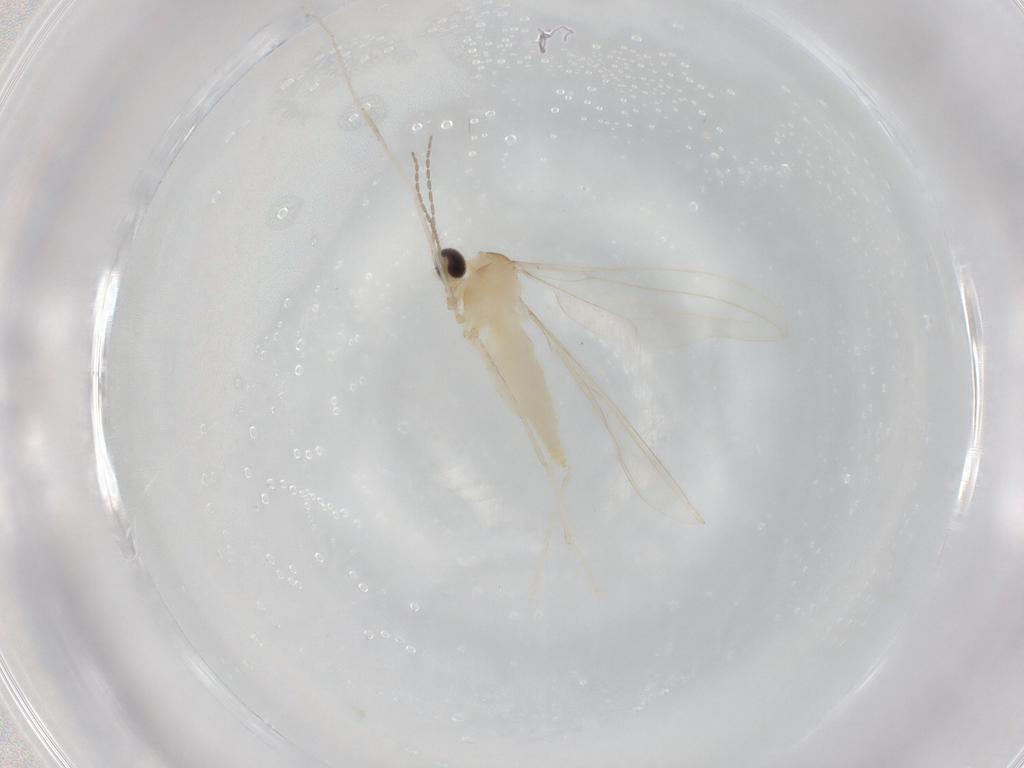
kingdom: Animalia
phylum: Arthropoda
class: Insecta
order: Diptera
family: Cecidomyiidae
